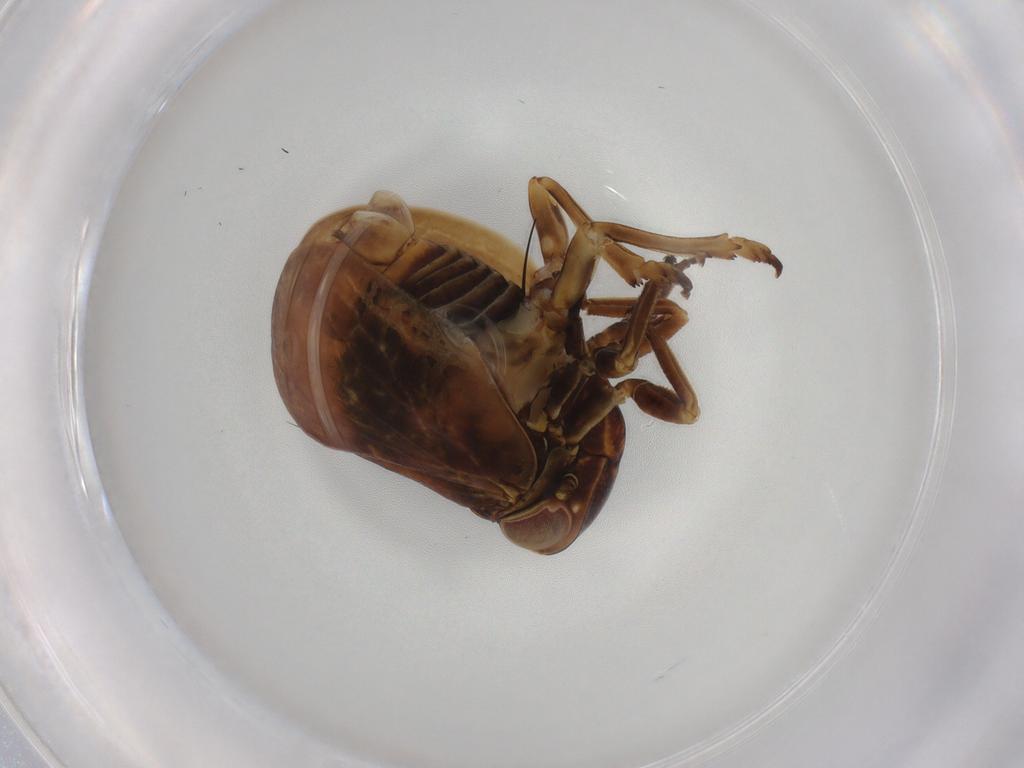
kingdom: Animalia
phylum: Arthropoda
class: Insecta
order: Hemiptera
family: Nogodinidae
